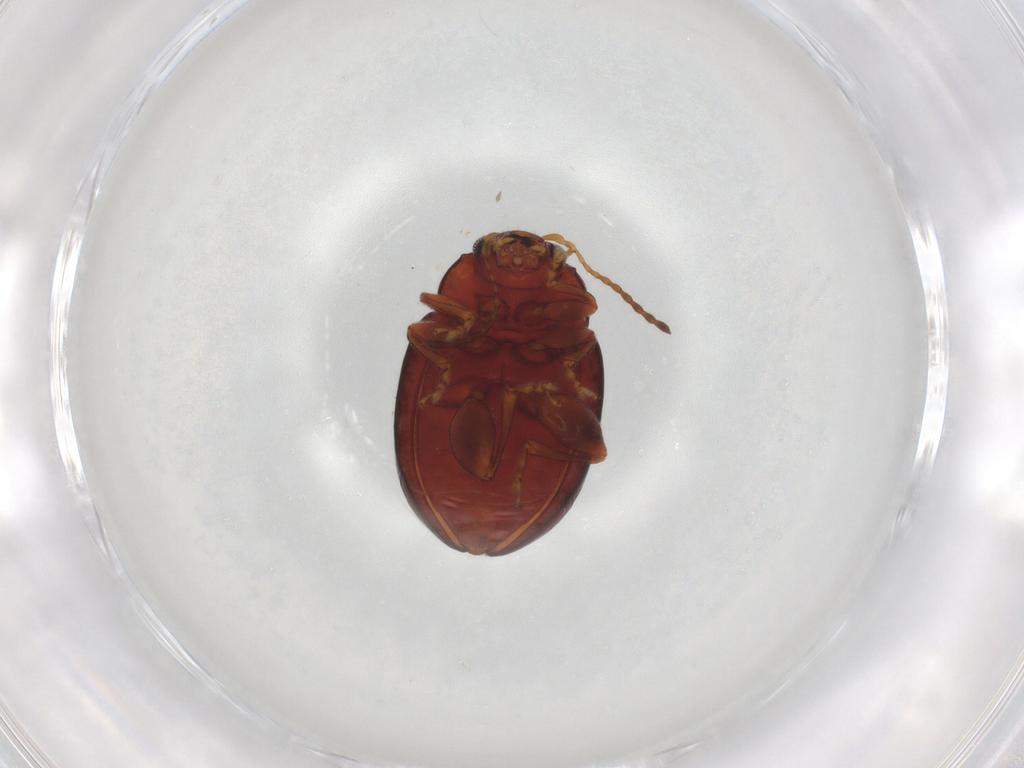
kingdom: Animalia
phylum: Arthropoda
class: Insecta
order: Coleoptera
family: Chrysomelidae
